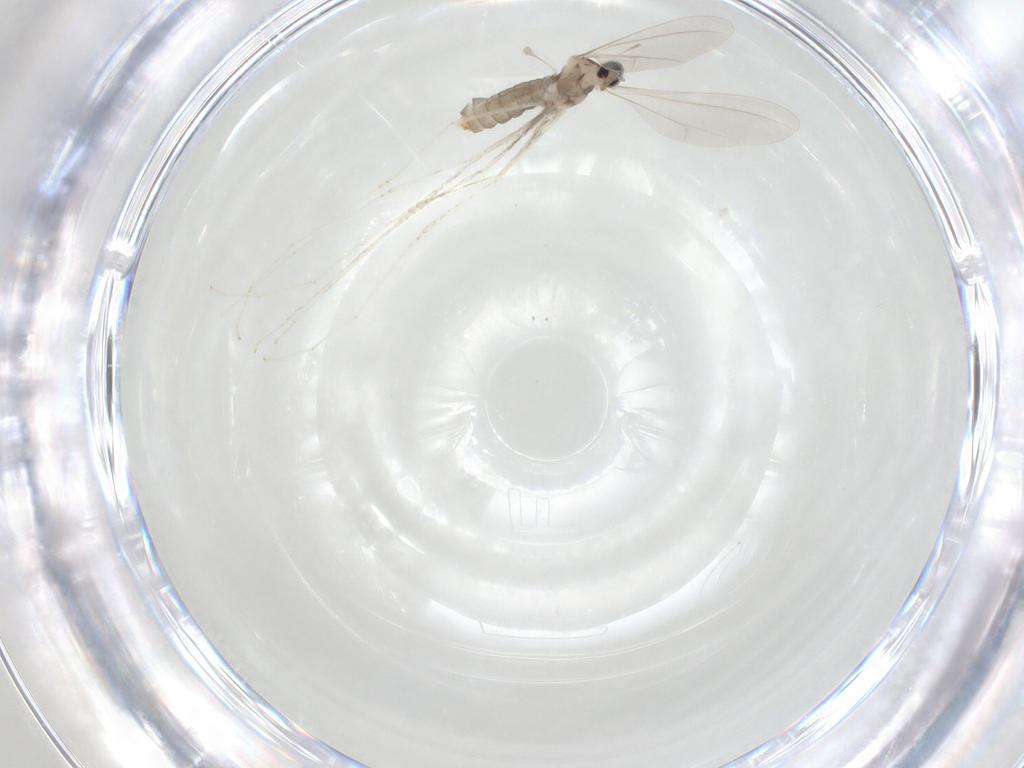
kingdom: Animalia
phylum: Arthropoda
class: Insecta
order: Diptera
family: Cecidomyiidae
